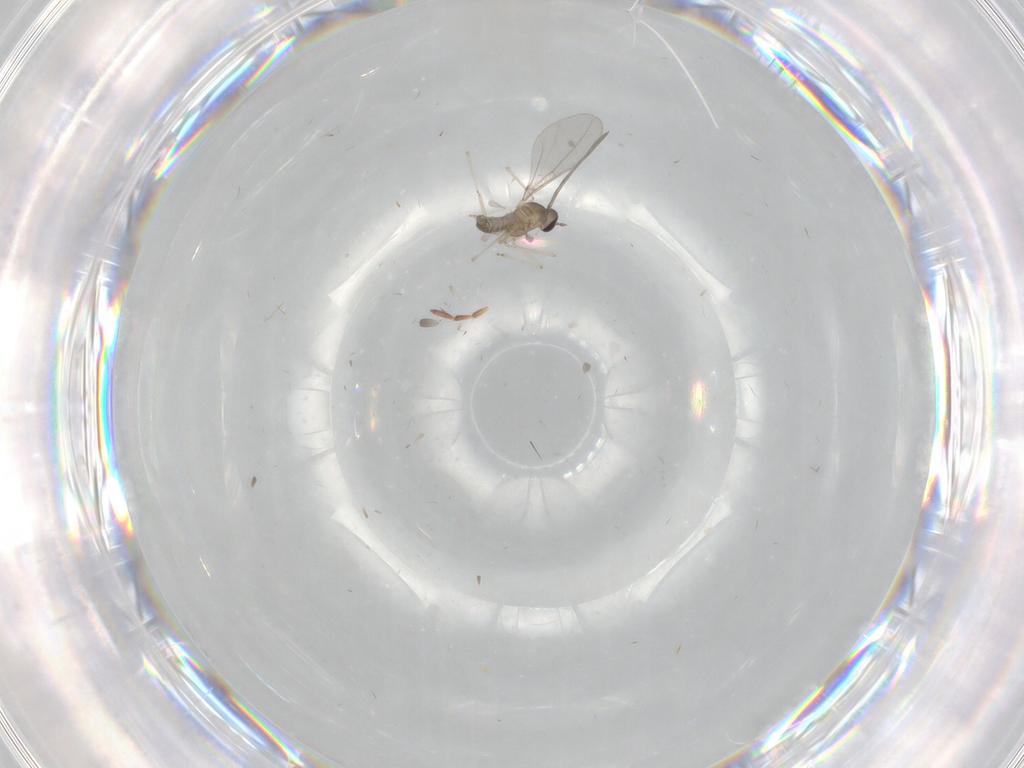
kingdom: Animalia
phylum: Arthropoda
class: Insecta
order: Diptera
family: Cecidomyiidae
